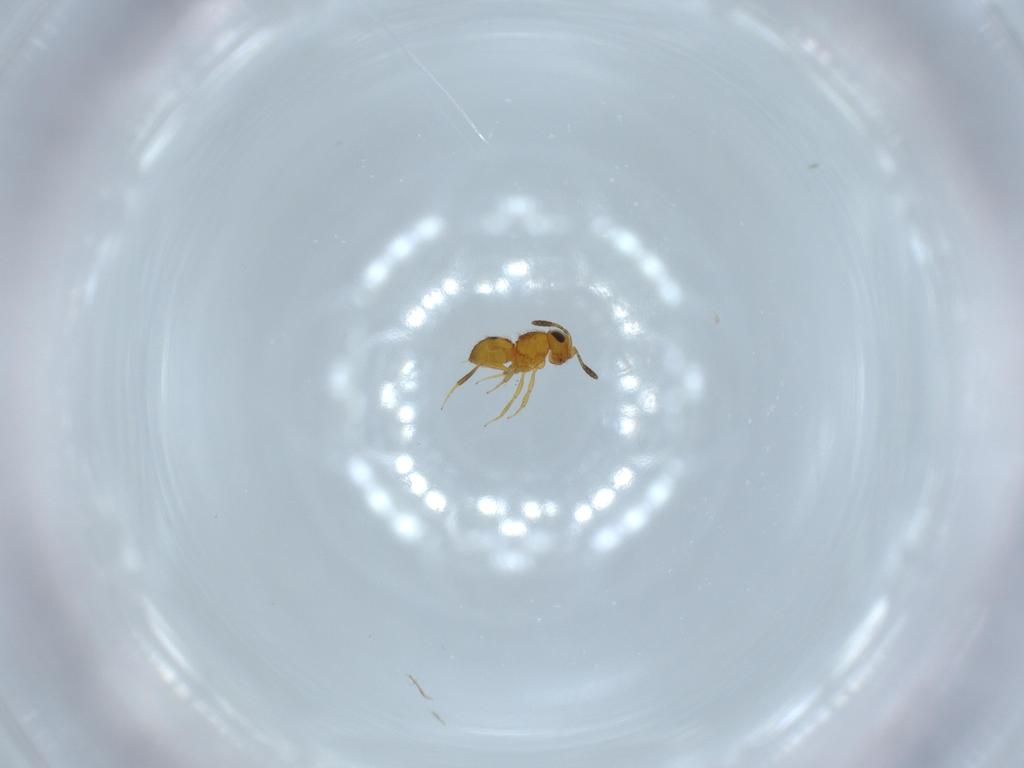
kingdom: Animalia
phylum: Arthropoda
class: Insecta
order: Hymenoptera
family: Scelionidae
